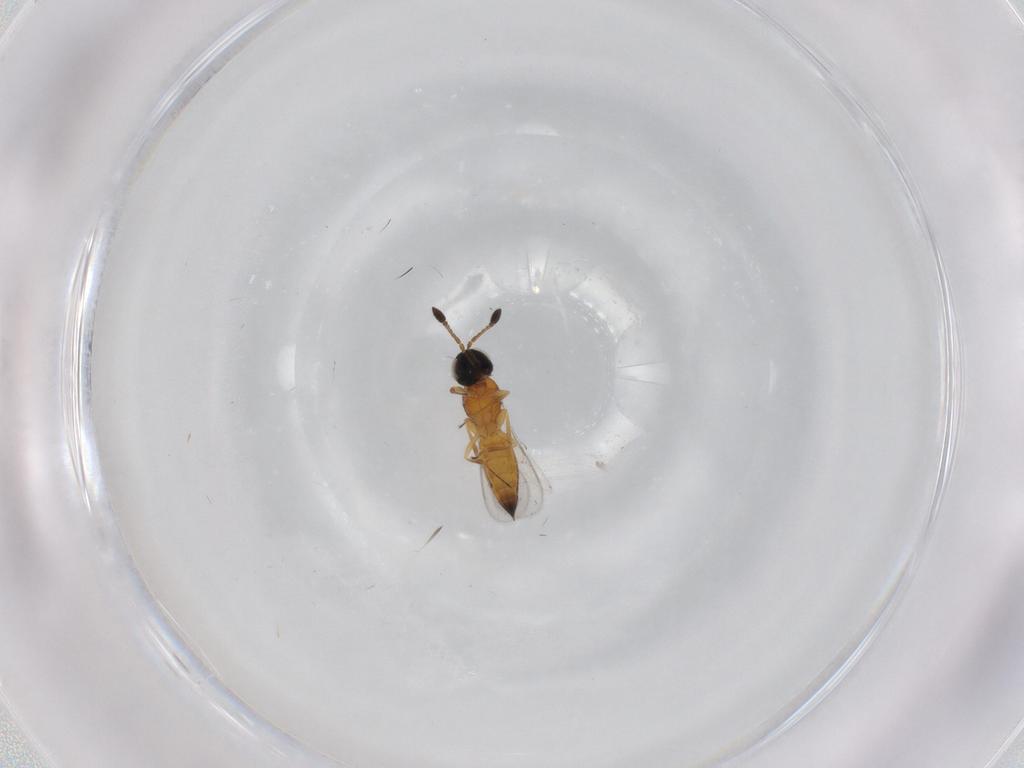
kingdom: Animalia
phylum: Arthropoda
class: Insecta
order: Hymenoptera
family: Scelionidae
